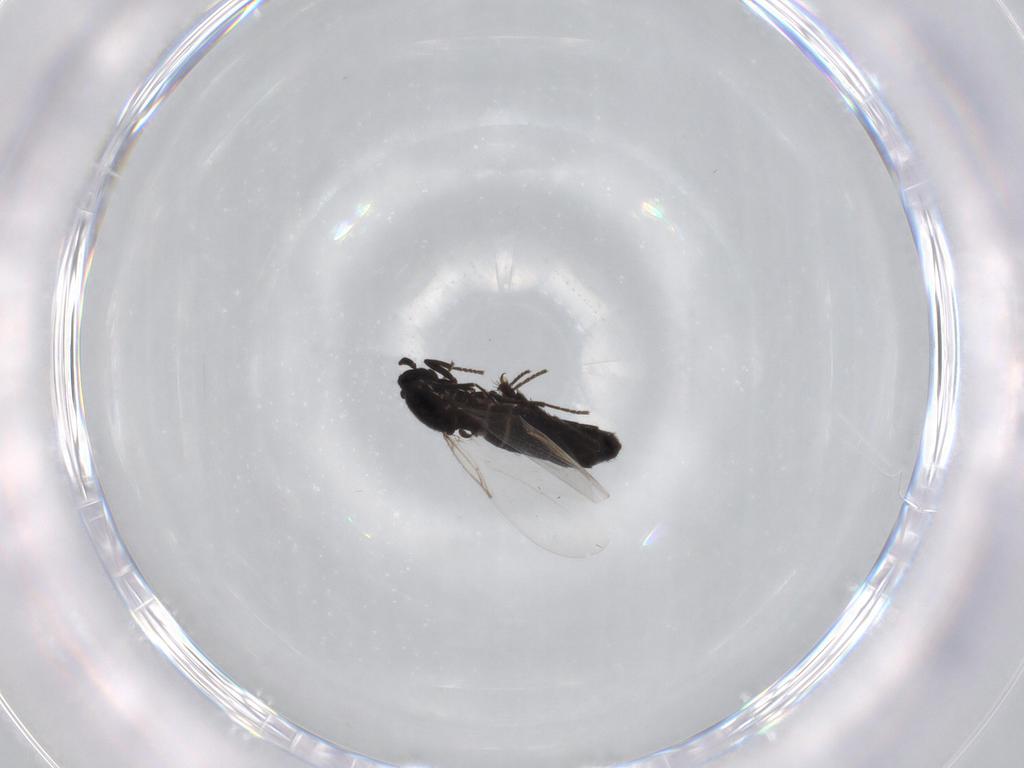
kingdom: Animalia
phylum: Arthropoda
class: Insecta
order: Diptera
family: Scatopsidae
